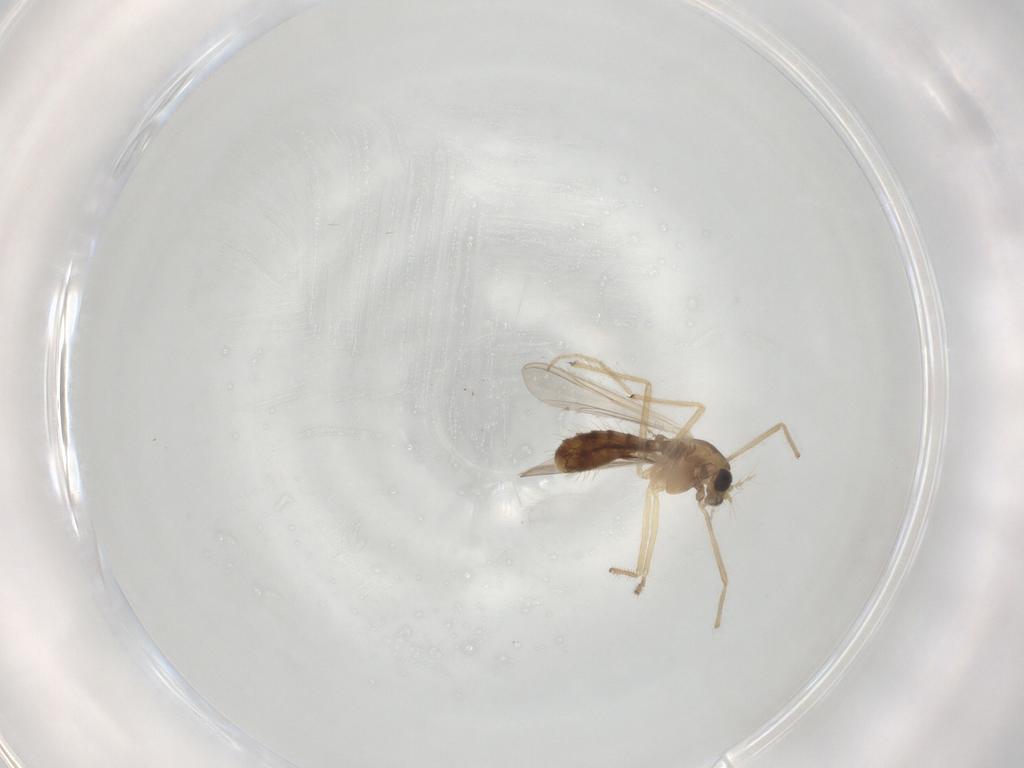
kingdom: Animalia
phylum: Arthropoda
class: Insecta
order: Diptera
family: Chironomidae
